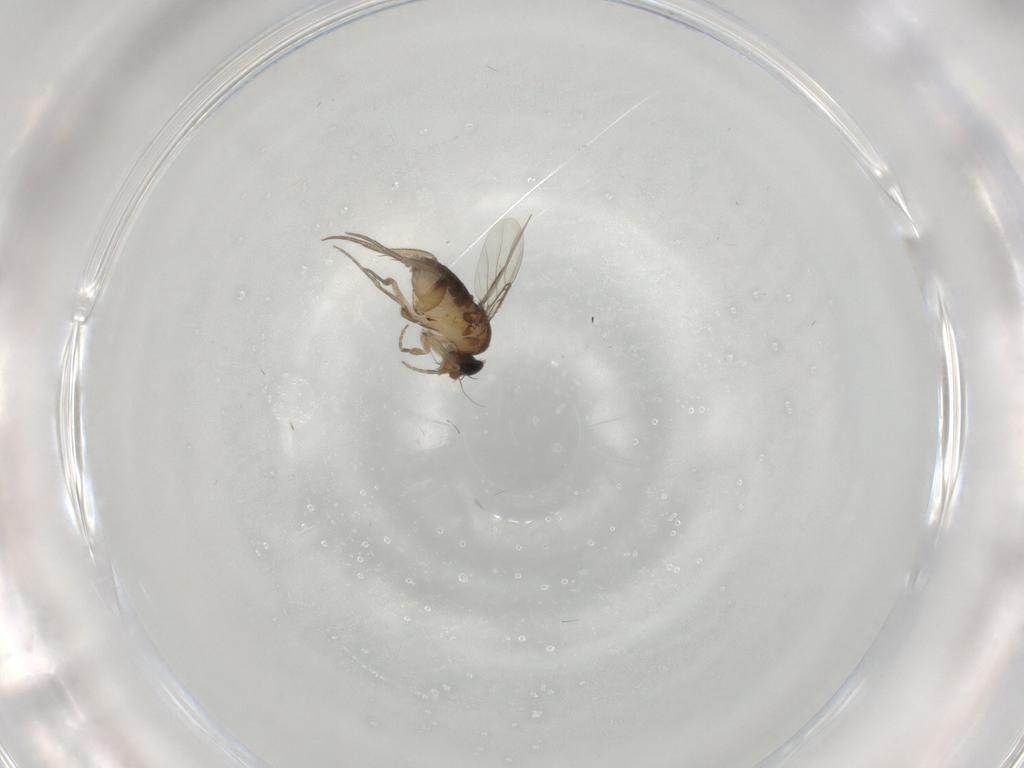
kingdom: Animalia
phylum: Arthropoda
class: Insecta
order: Diptera
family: Phoridae
